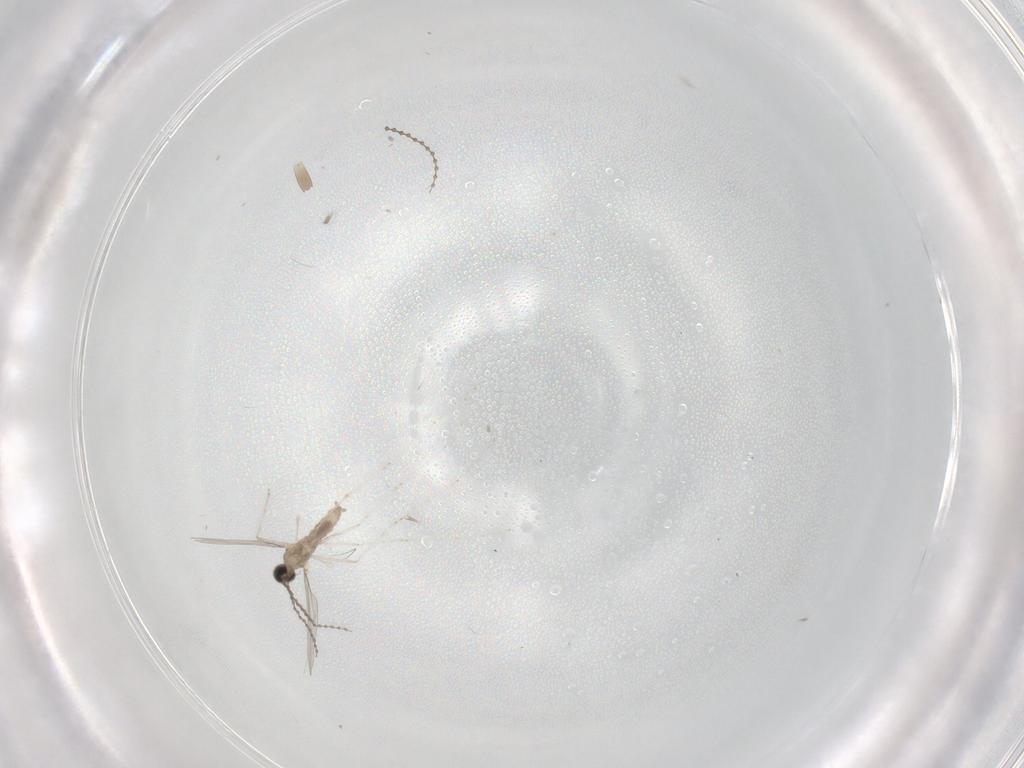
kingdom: Animalia
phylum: Arthropoda
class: Insecta
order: Diptera
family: Cecidomyiidae
